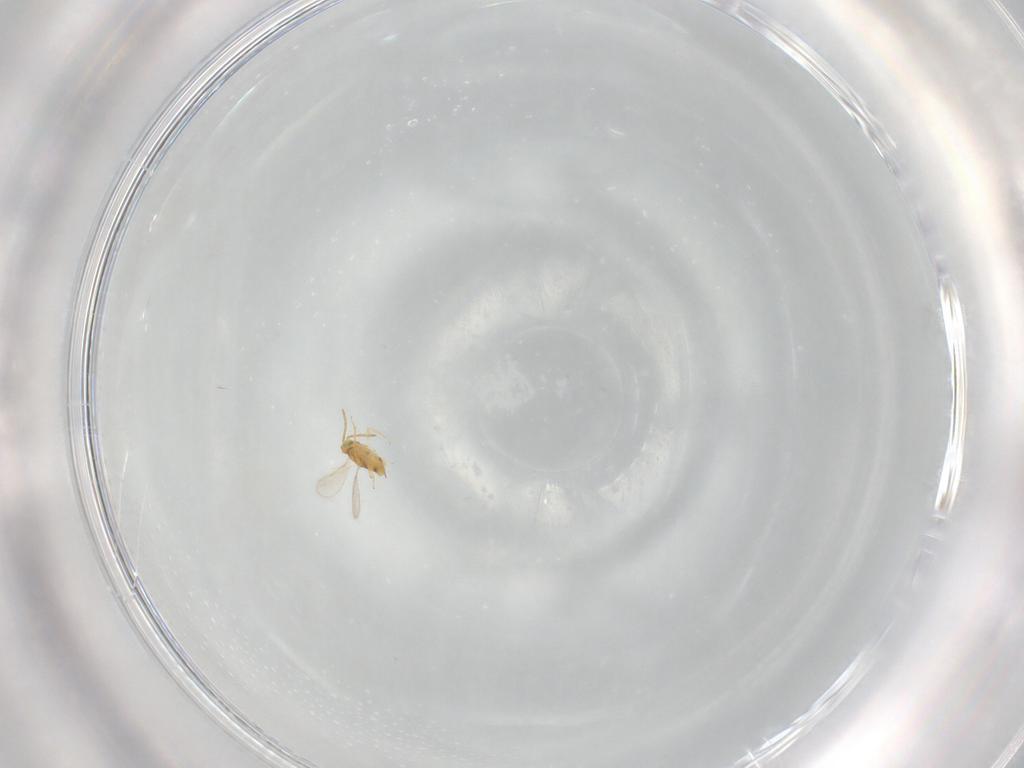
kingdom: Animalia
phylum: Arthropoda
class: Insecta
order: Hymenoptera
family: Aphelinidae
